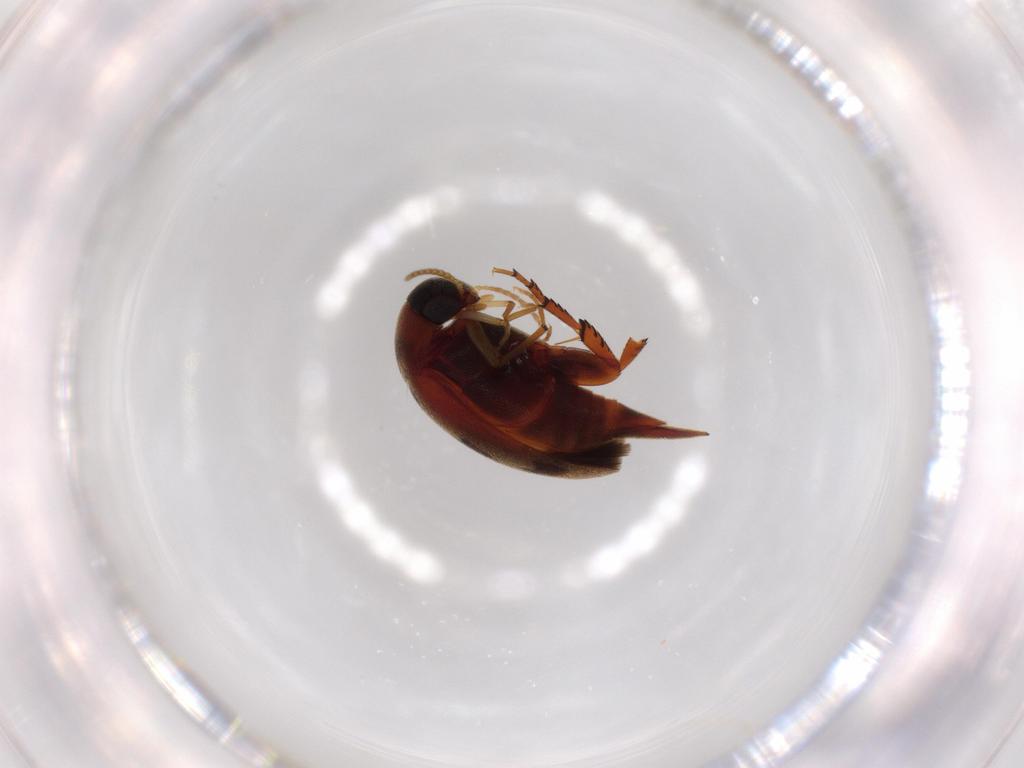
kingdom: Animalia
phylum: Arthropoda
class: Insecta
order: Coleoptera
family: Mordellidae
